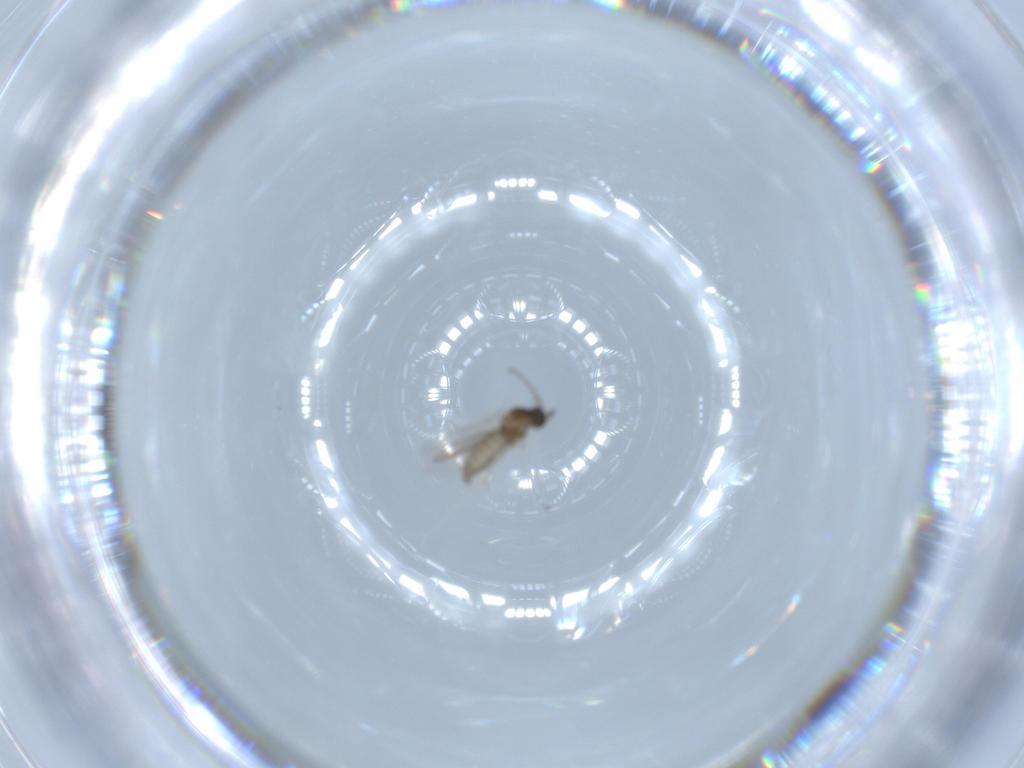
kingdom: Animalia
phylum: Arthropoda
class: Insecta
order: Diptera
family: Cecidomyiidae
